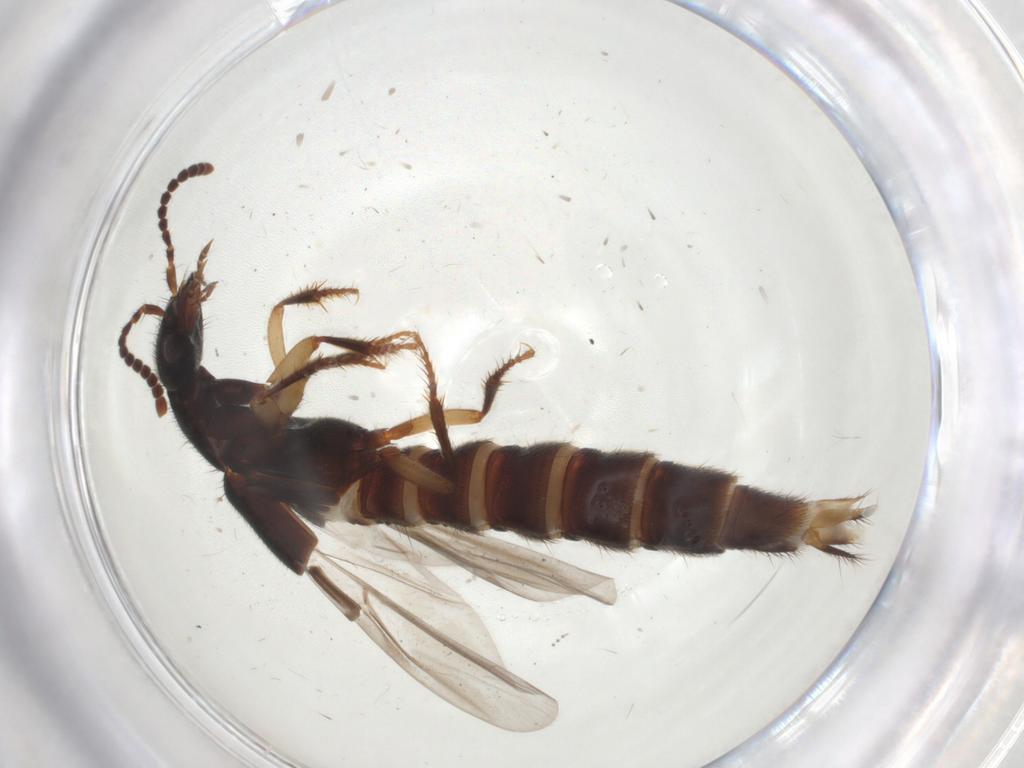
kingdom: Animalia
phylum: Arthropoda
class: Insecta
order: Coleoptera
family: Staphylinidae
